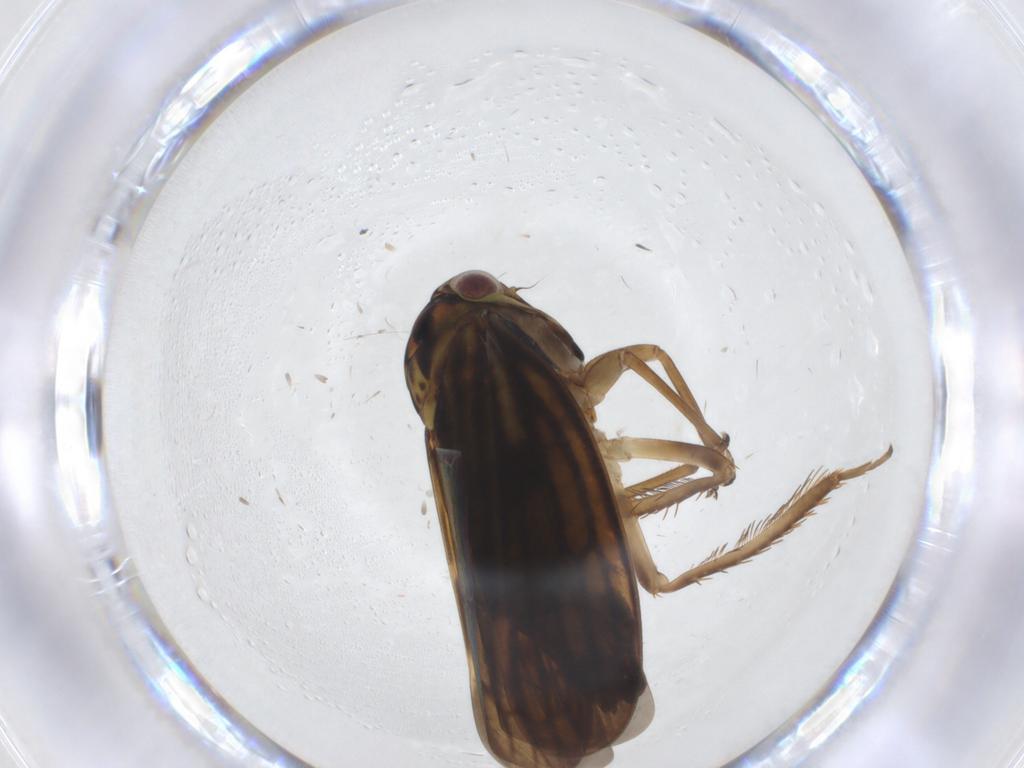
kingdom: Animalia
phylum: Arthropoda
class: Insecta
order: Hemiptera
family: Cicadellidae
